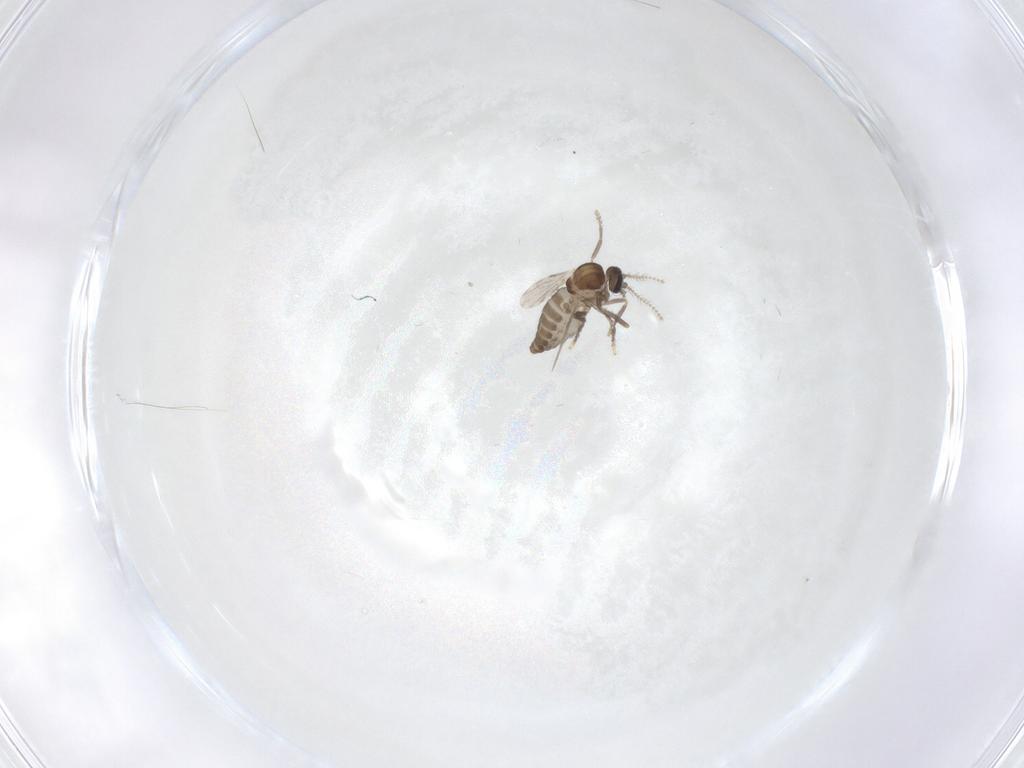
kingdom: Animalia
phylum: Arthropoda
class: Insecta
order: Diptera
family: Ceratopogonidae
